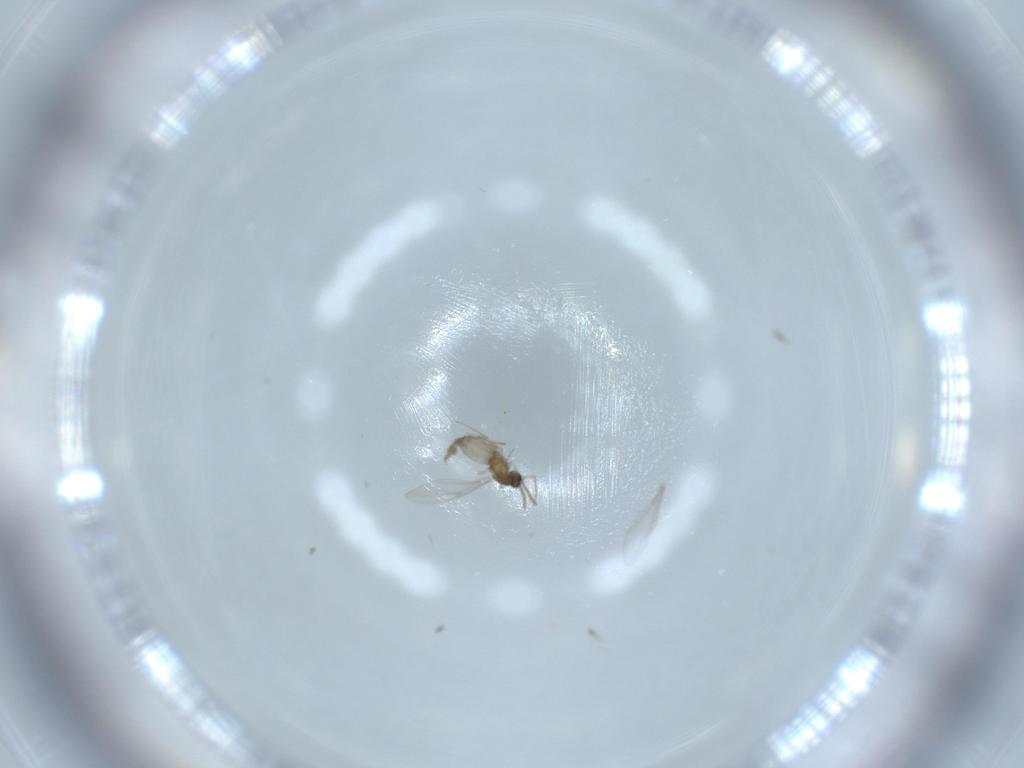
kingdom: Animalia
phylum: Arthropoda
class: Insecta
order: Diptera
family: Cecidomyiidae
